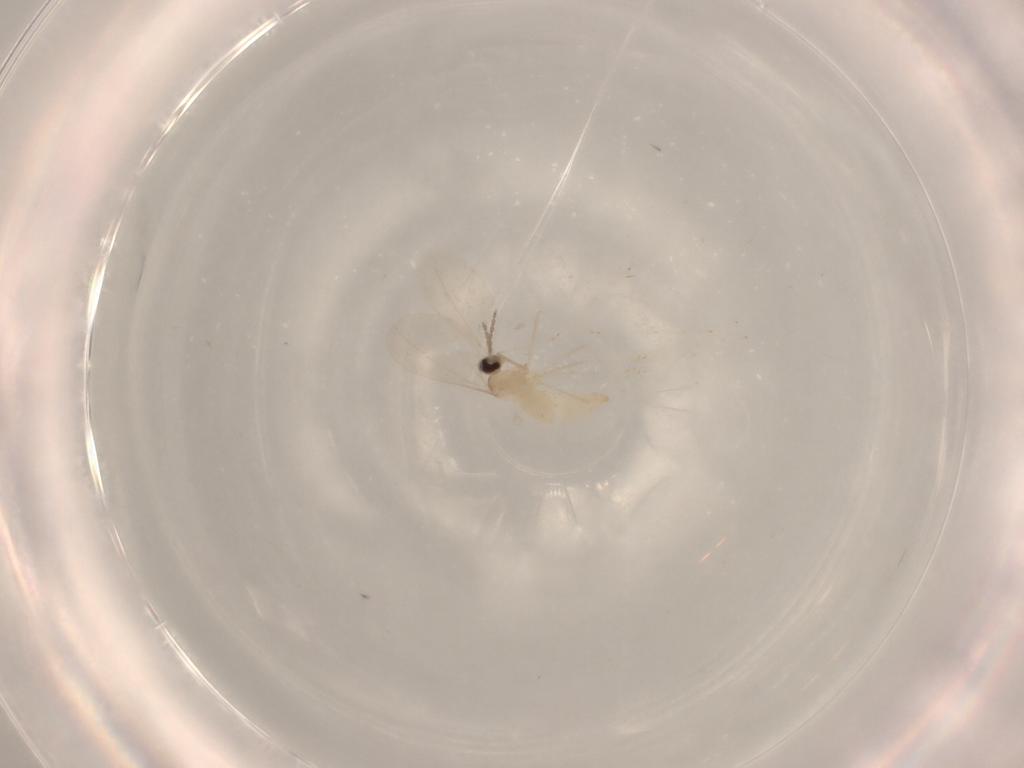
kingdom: Animalia
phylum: Arthropoda
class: Insecta
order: Diptera
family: Cecidomyiidae
